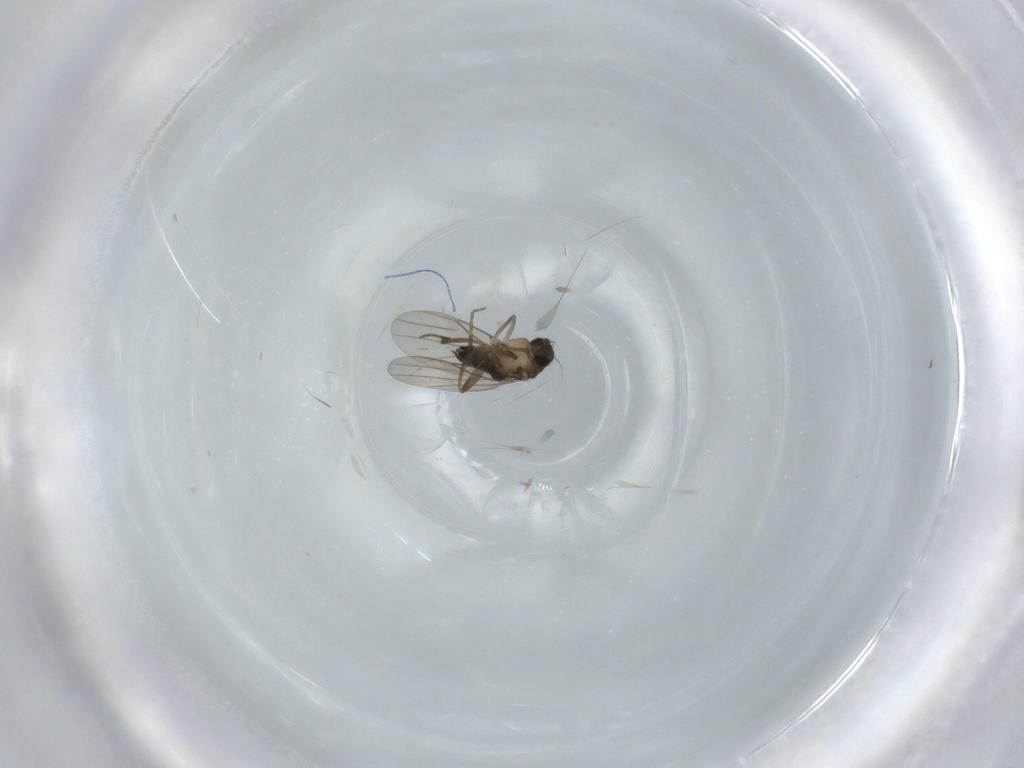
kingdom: Animalia
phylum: Arthropoda
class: Insecta
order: Diptera
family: Phoridae
